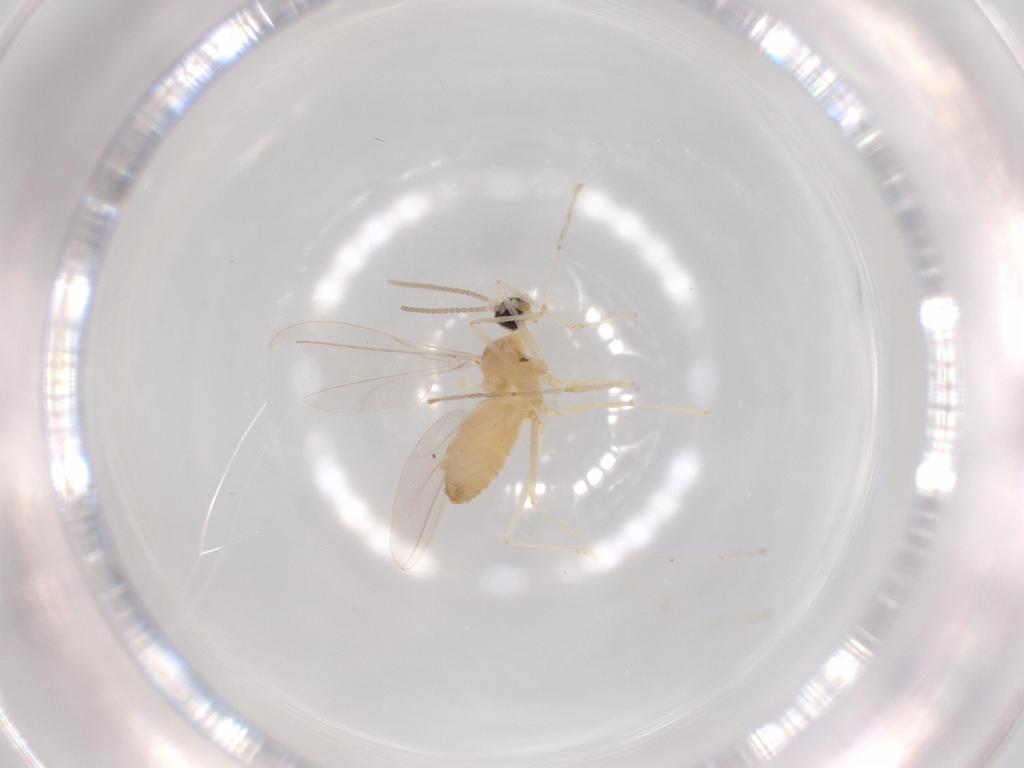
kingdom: Animalia
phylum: Arthropoda
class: Insecta
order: Diptera
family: Cecidomyiidae
